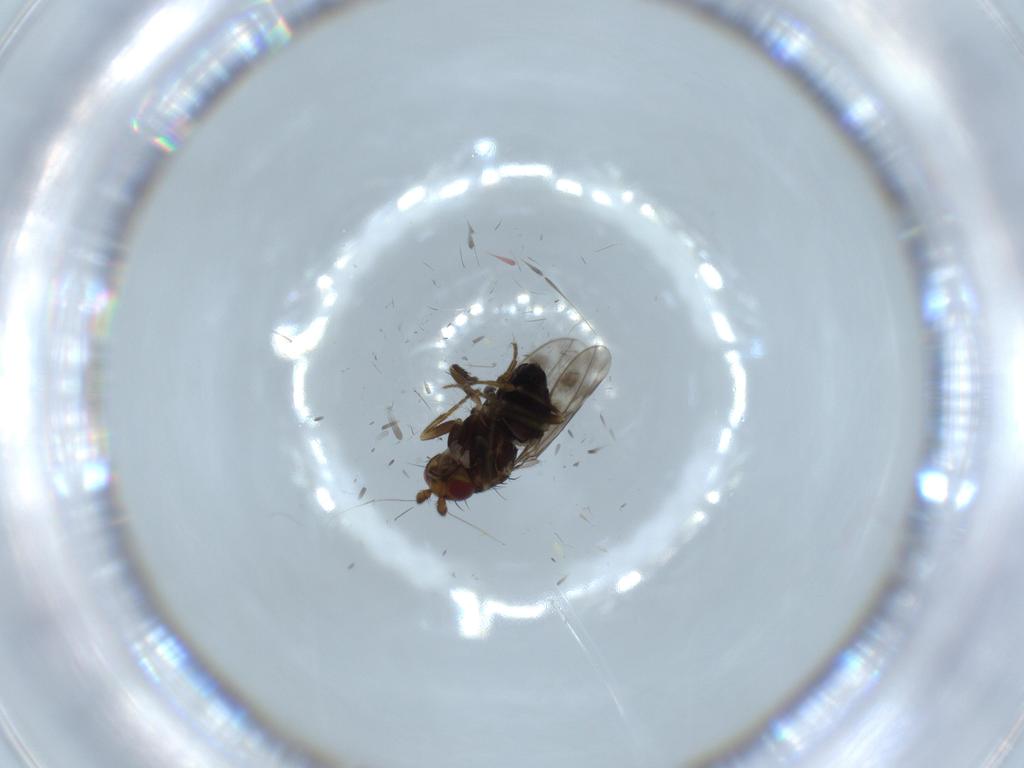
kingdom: Animalia
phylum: Arthropoda
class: Insecta
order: Diptera
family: Sphaeroceridae
